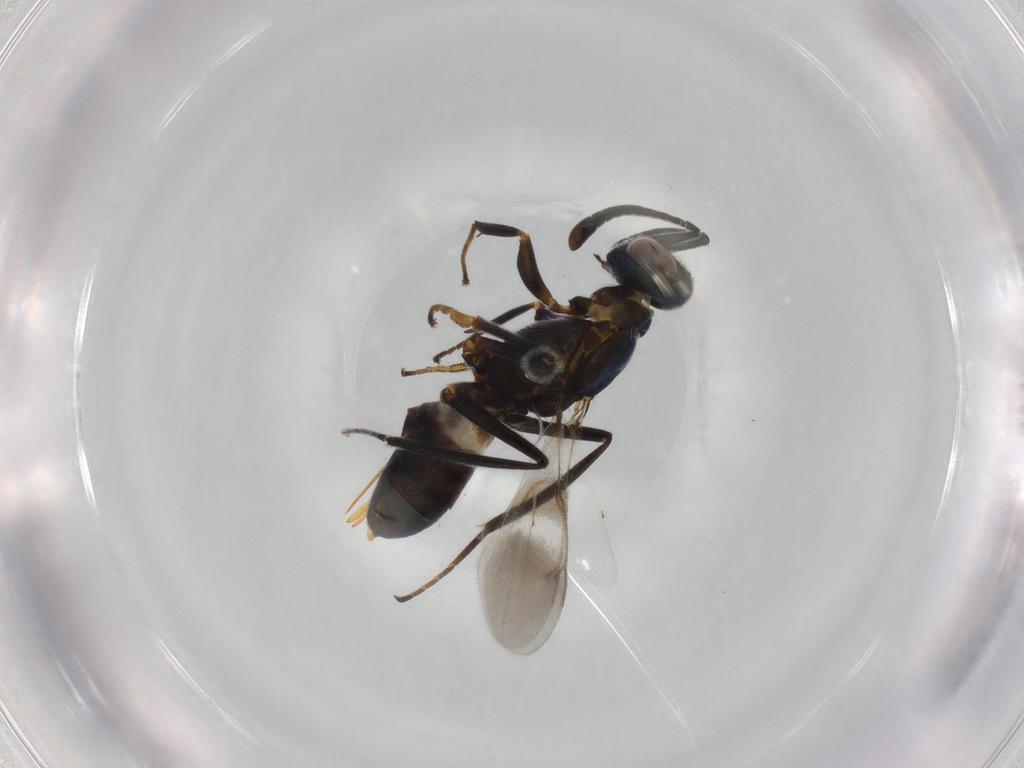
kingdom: Animalia
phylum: Arthropoda
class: Insecta
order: Hymenoptera
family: Eupelmidae
